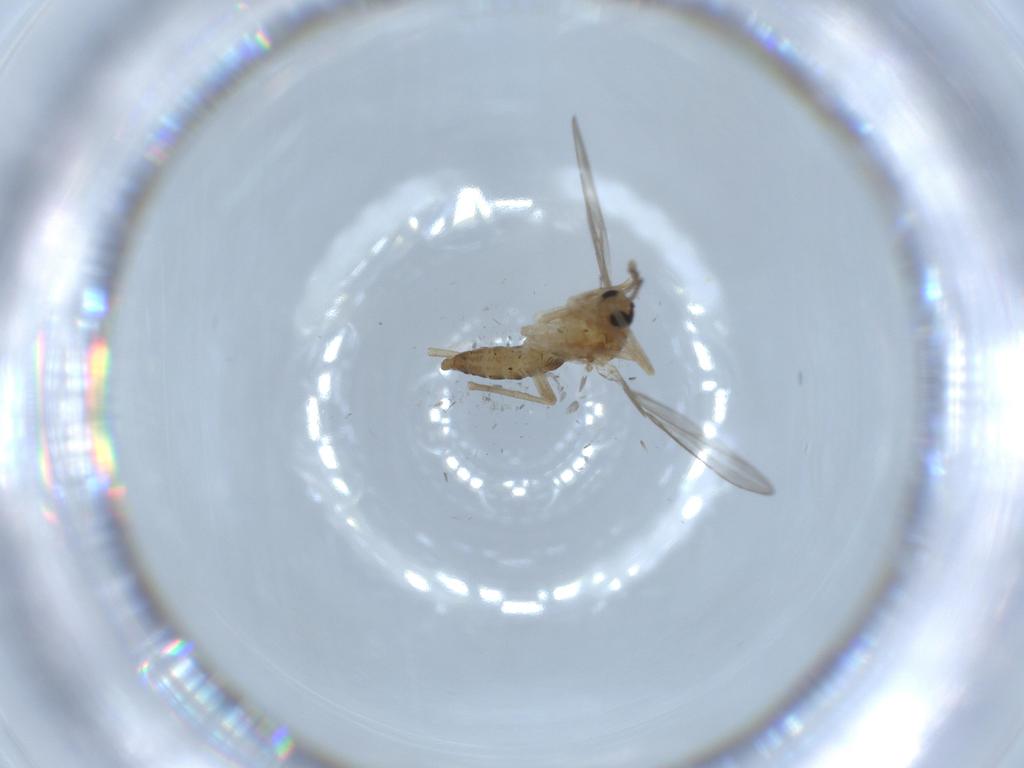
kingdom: Animalia
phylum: Arthropoda
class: Insecta
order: Diptera
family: Cecidomyiidae
